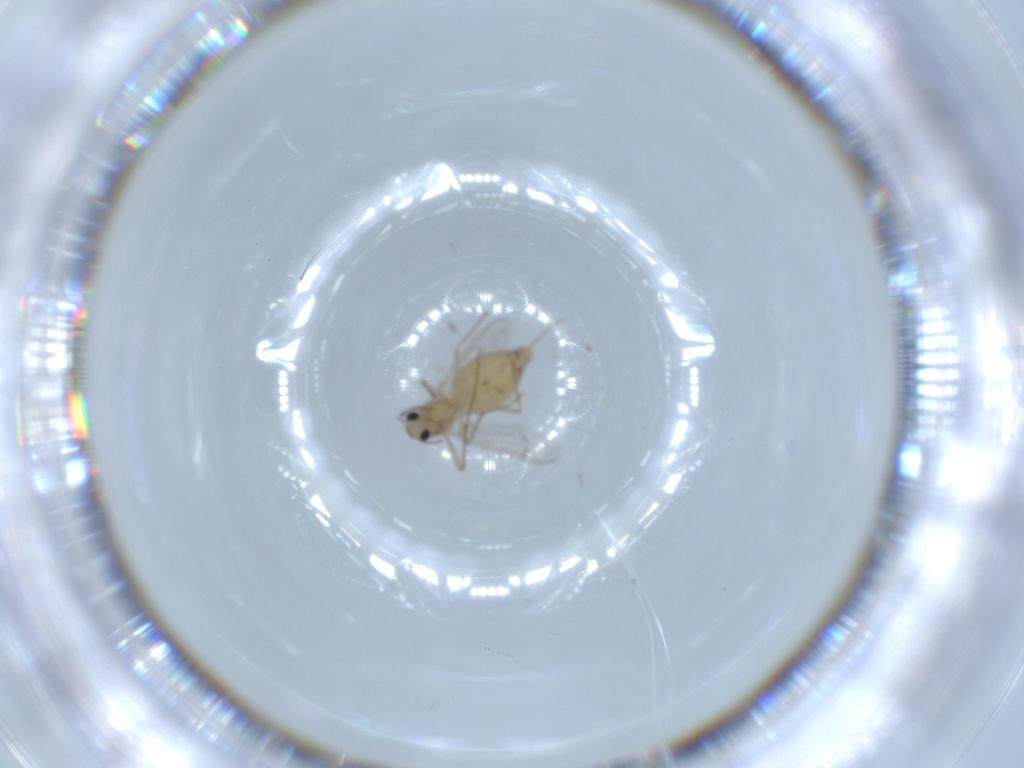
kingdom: Animalia
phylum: Arthropoda
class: Insecta
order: Diptera
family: Chironomidae
